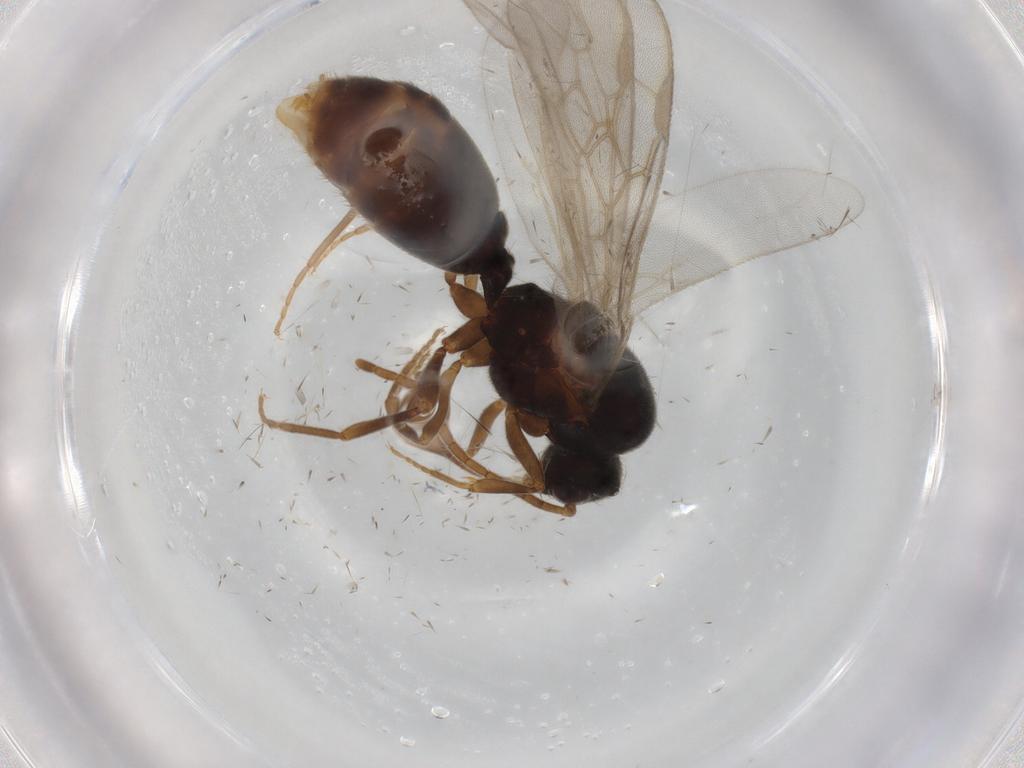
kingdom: Animalia
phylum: Arthropoda
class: Insecta
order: Hymenoptera
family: Formicidae
